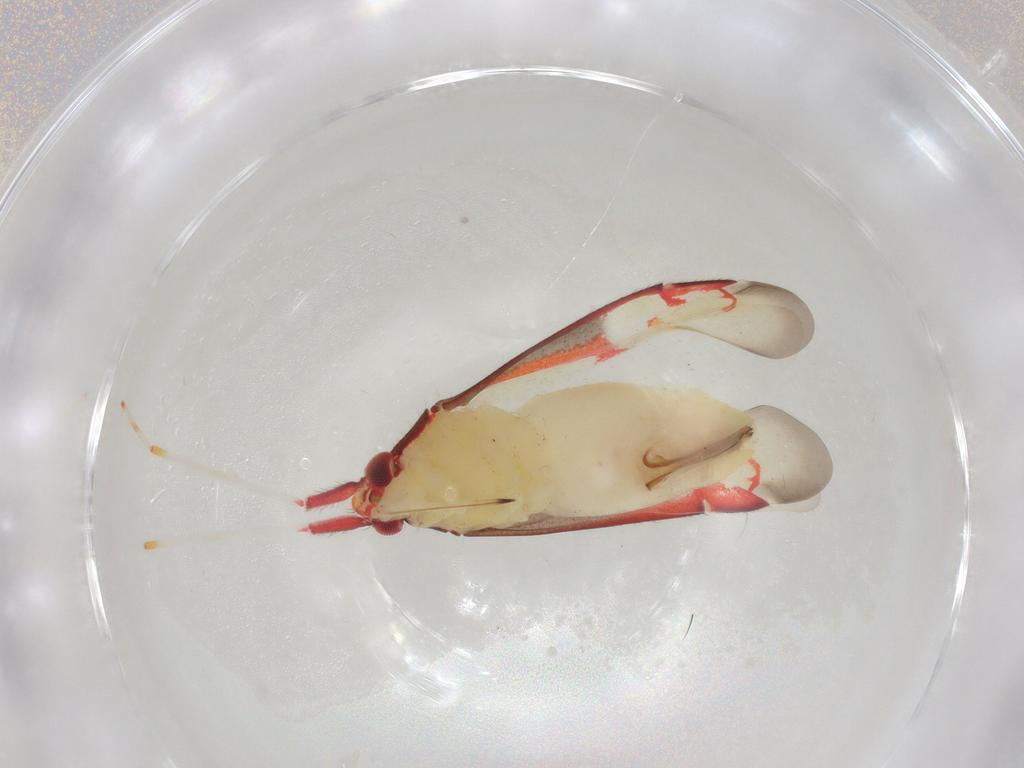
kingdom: Animalia
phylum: Arthropoda
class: Insecta
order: Hemiptera
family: Miridae
